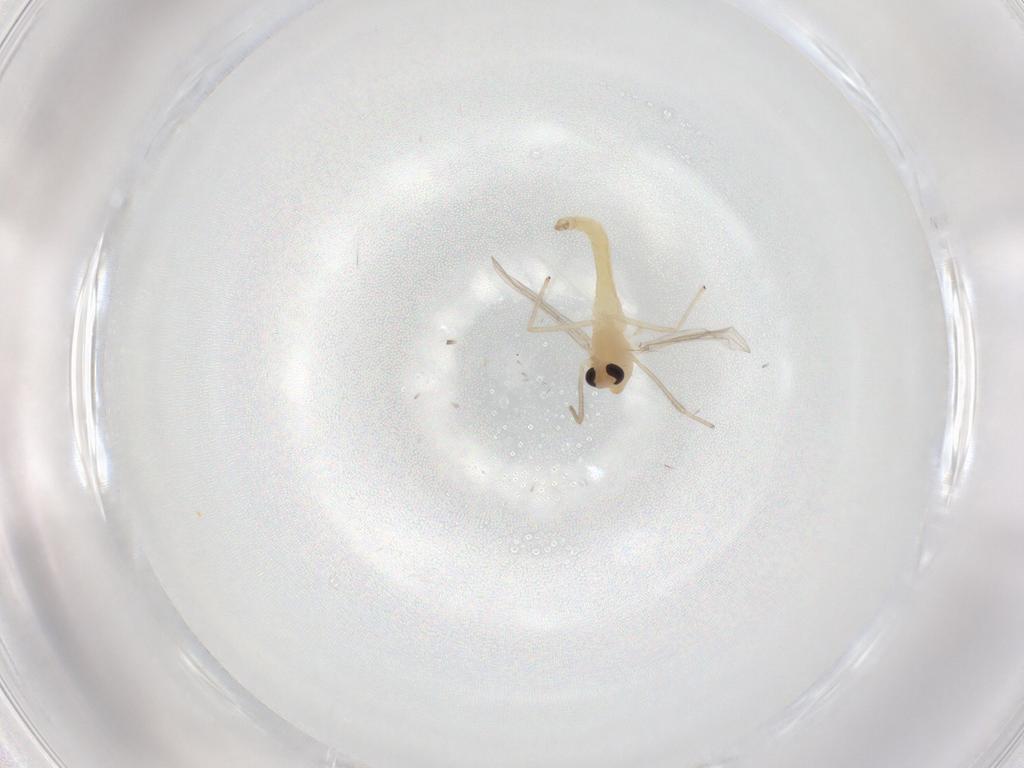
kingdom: Animalia
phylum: Arthropoda
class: Insecta
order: Diptera
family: Chironomidae
